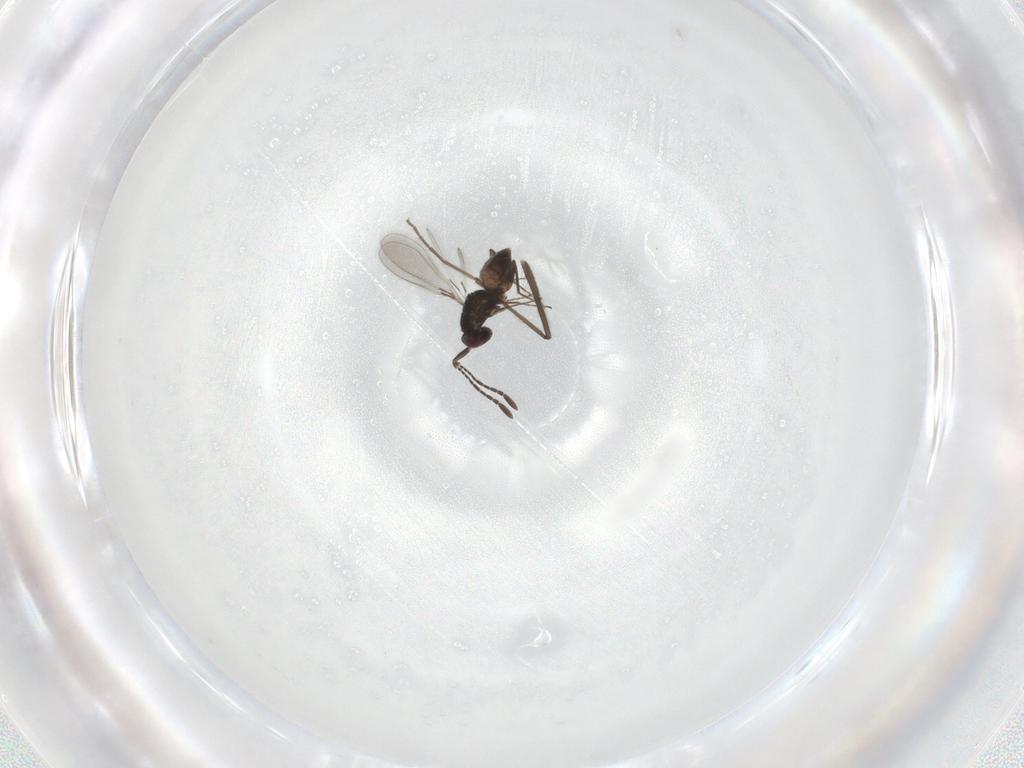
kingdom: Animalia
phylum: Arthropoda
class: Insecta
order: Hymenoptera
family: Mymaridae
